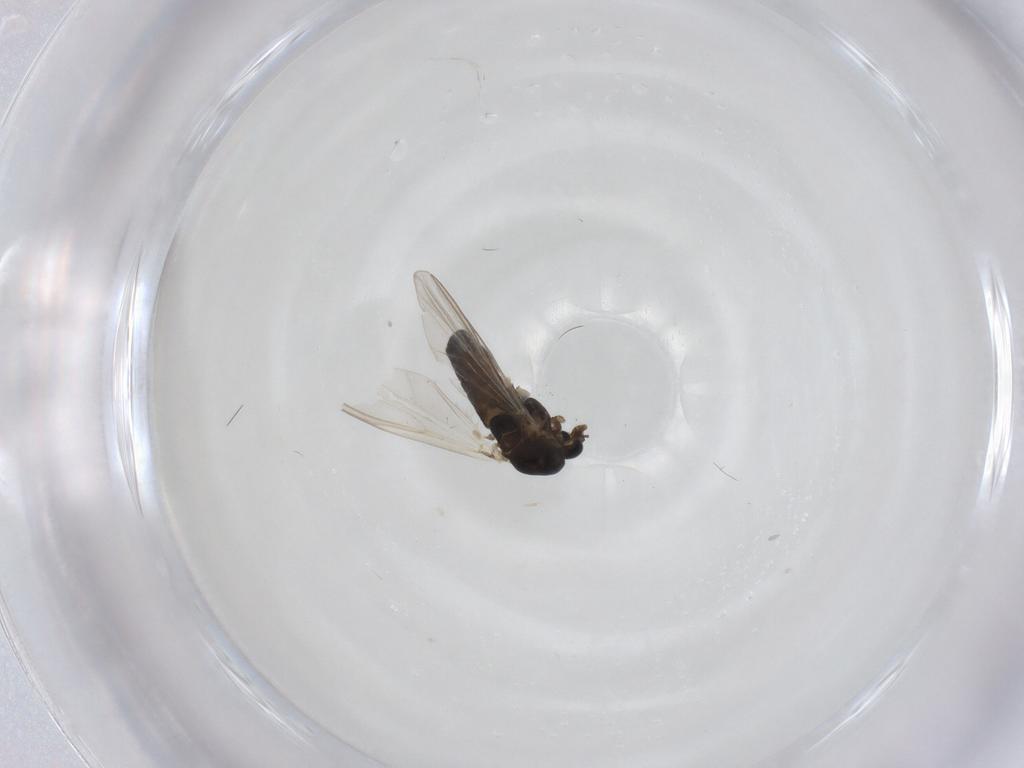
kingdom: Animalia
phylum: Arthropoda
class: Insecta
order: Diptera
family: Chironomidae
